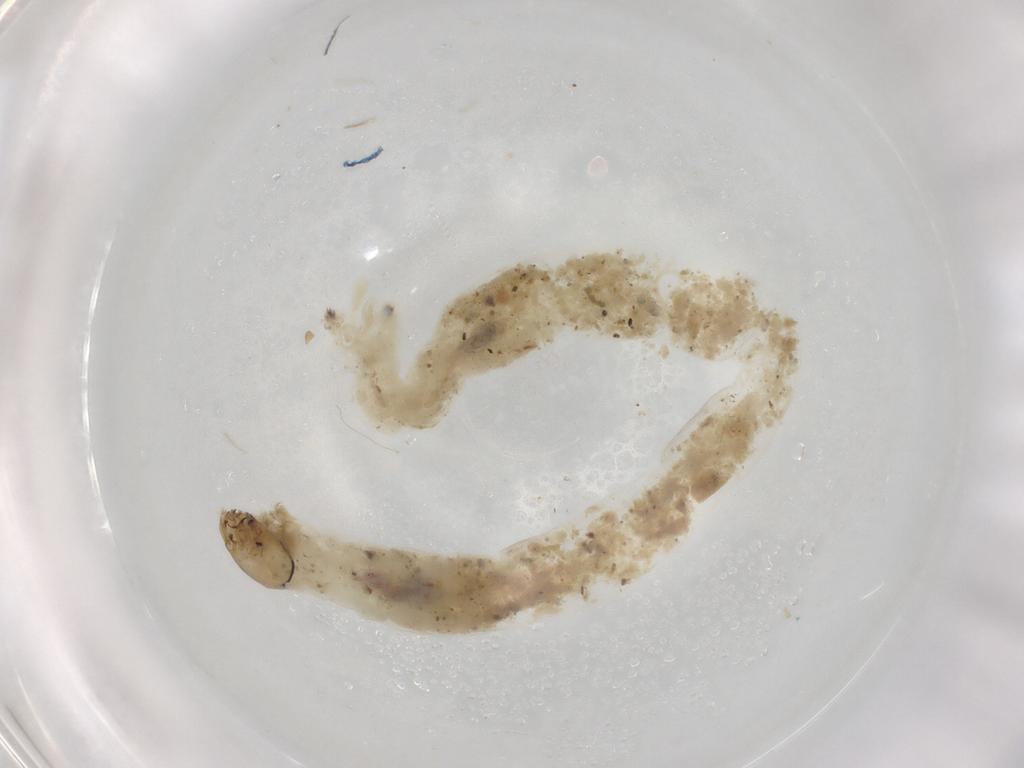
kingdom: Animalia
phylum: Arthropoda
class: Insecta
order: Diptera
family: Chironomidae
